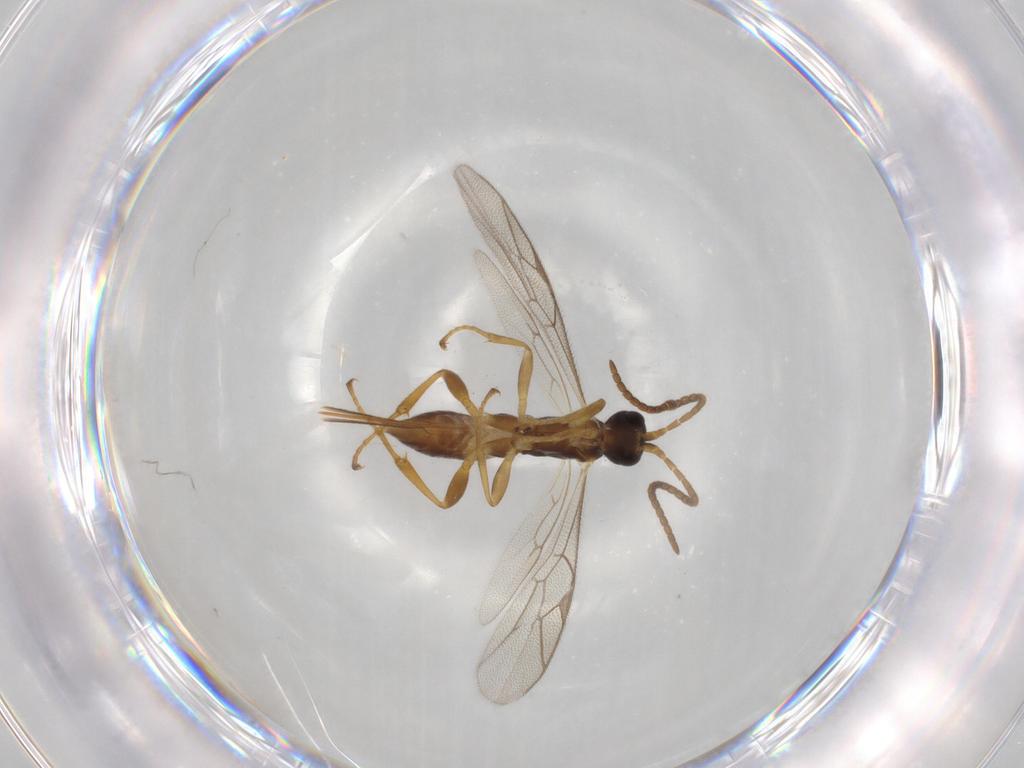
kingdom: Animalia
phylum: Arthropoda
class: Insecta
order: Hymenoptera
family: Ichneumonidae
